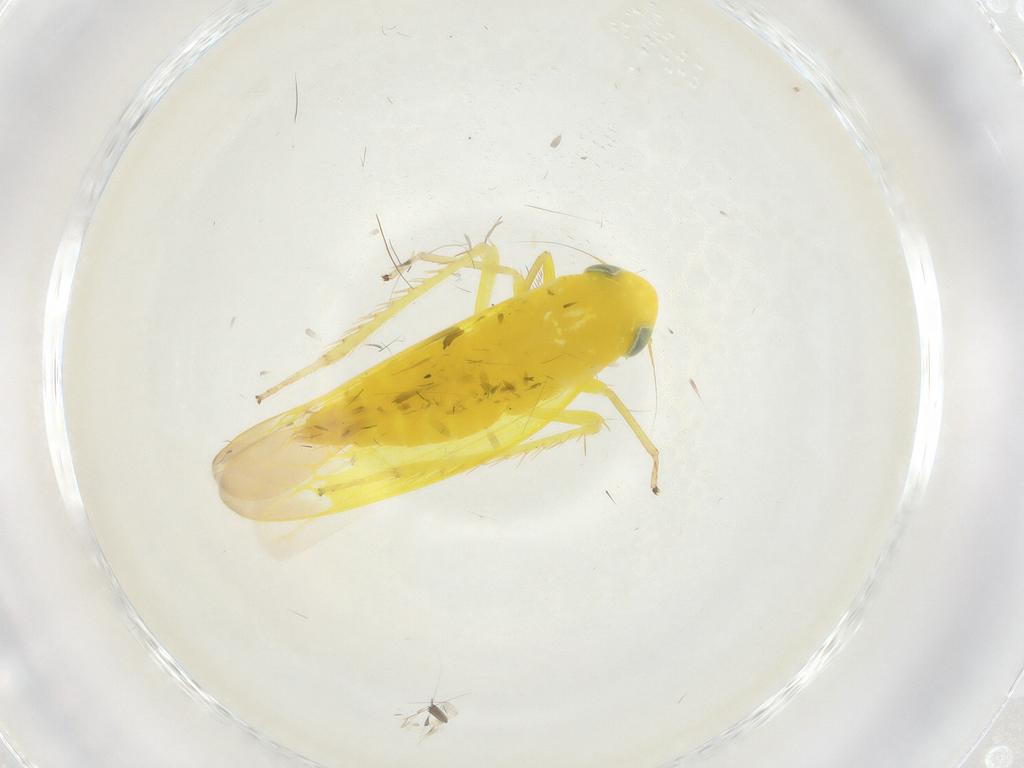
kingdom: Animalia
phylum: Arthropoda
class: Insecta
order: Hemiptera
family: Cicadellidae
